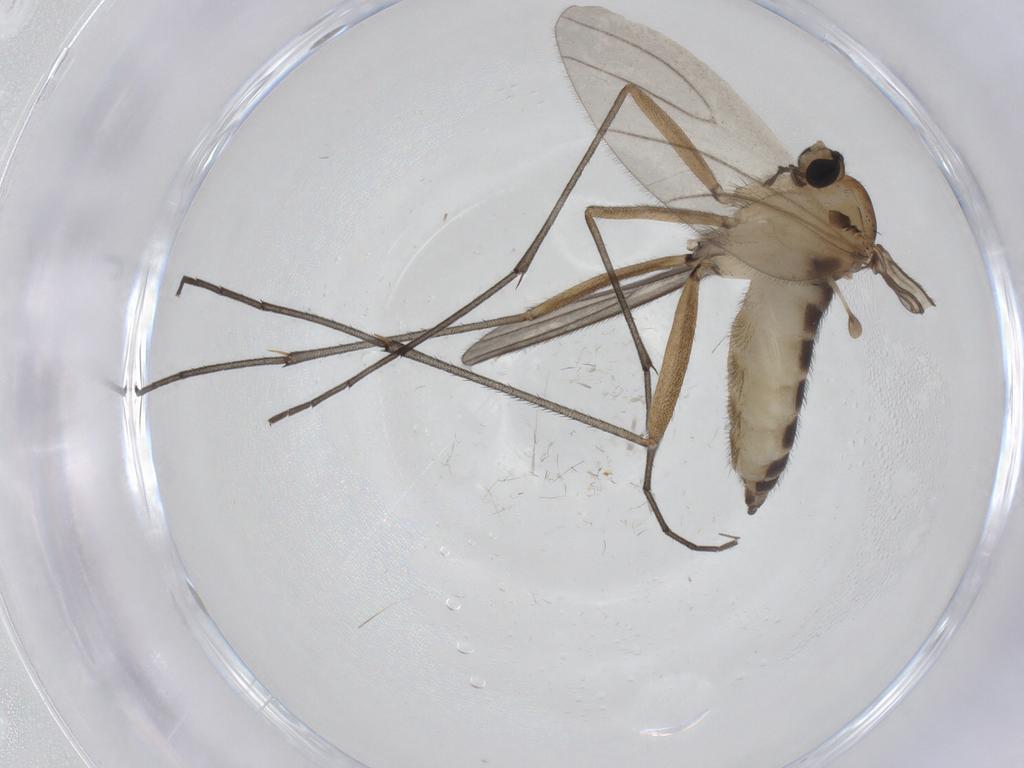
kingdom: Animalia
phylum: Arthropoda
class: Insecta
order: Diptera
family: Sciaridae
